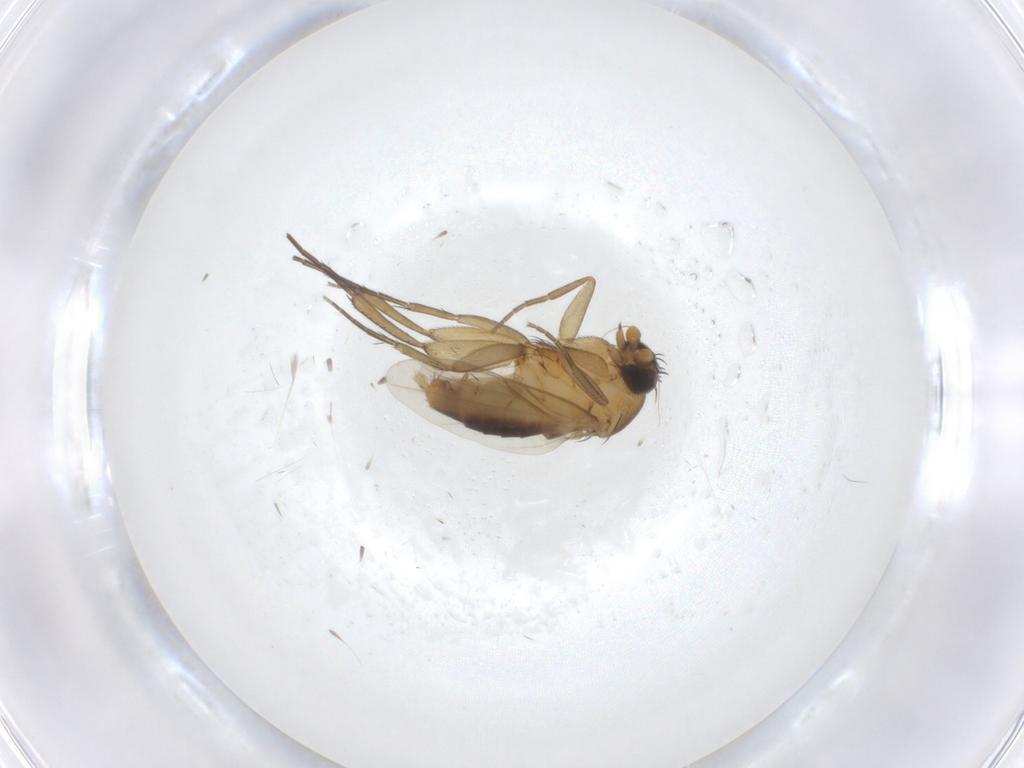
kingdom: Animalia
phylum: Arthropoda
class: Insecta
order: Diptera
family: Phoridae
